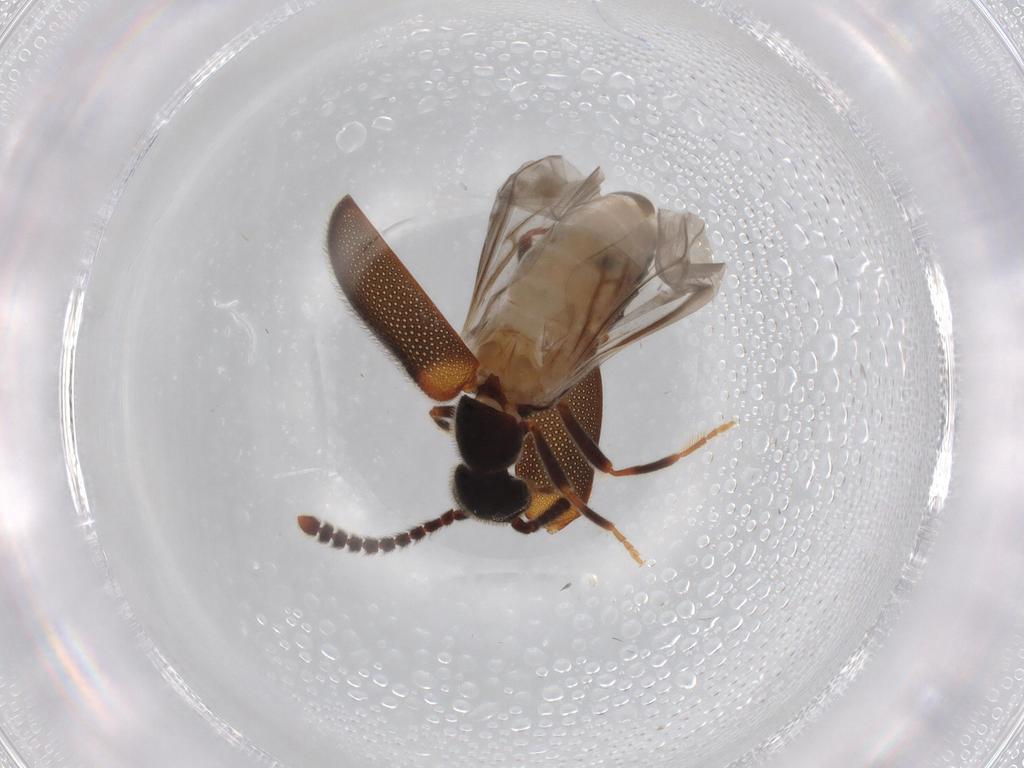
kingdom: Animalia
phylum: Arthropoda
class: Insecta
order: Coleoptera
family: Aderidae
